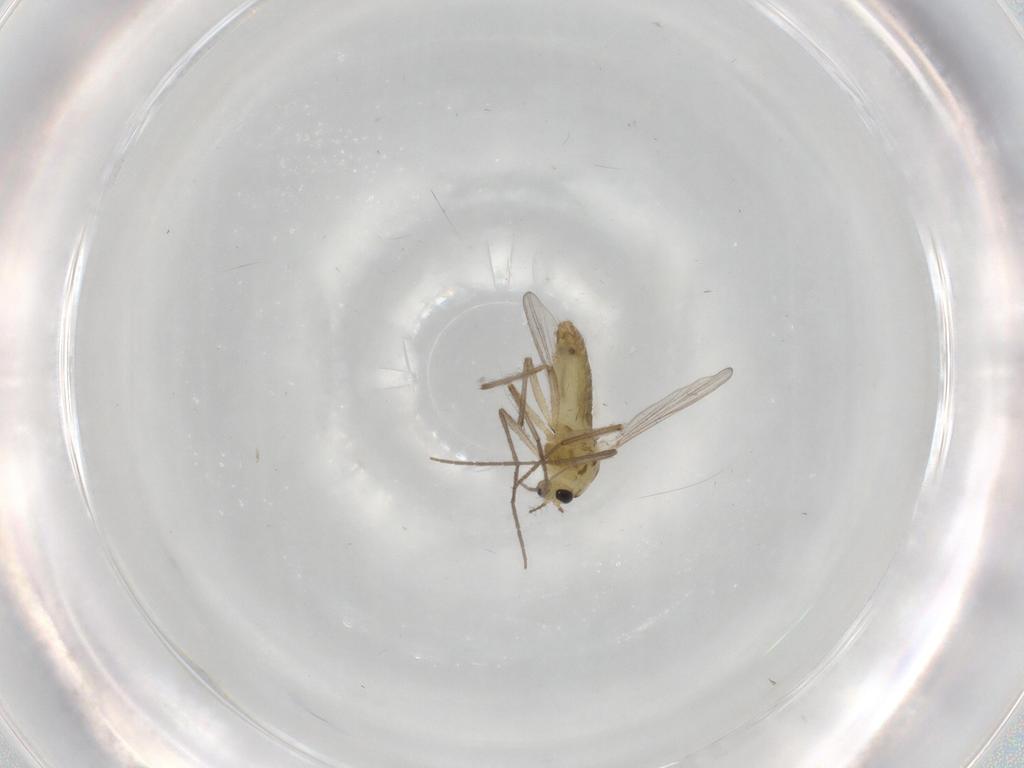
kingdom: Animalia
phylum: Arthropoda
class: Insecta
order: Diptera
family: Chironomidae
